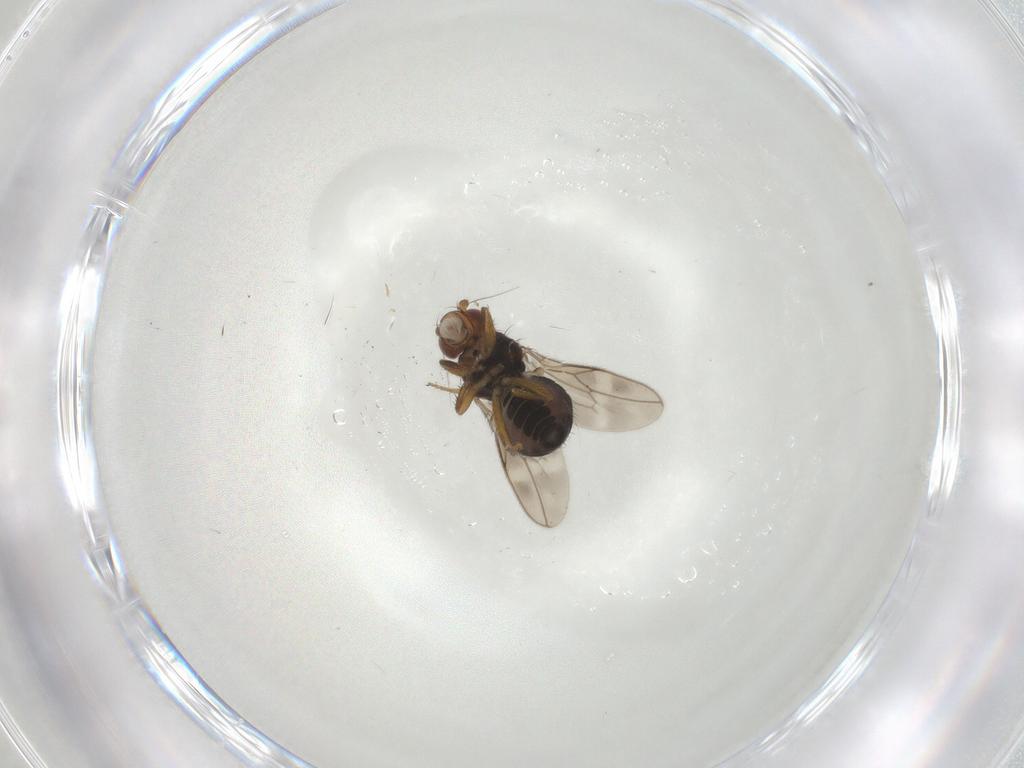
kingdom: Animalia
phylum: Arthropoda
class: Insecta
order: Diptera
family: Sphaeroceridae
